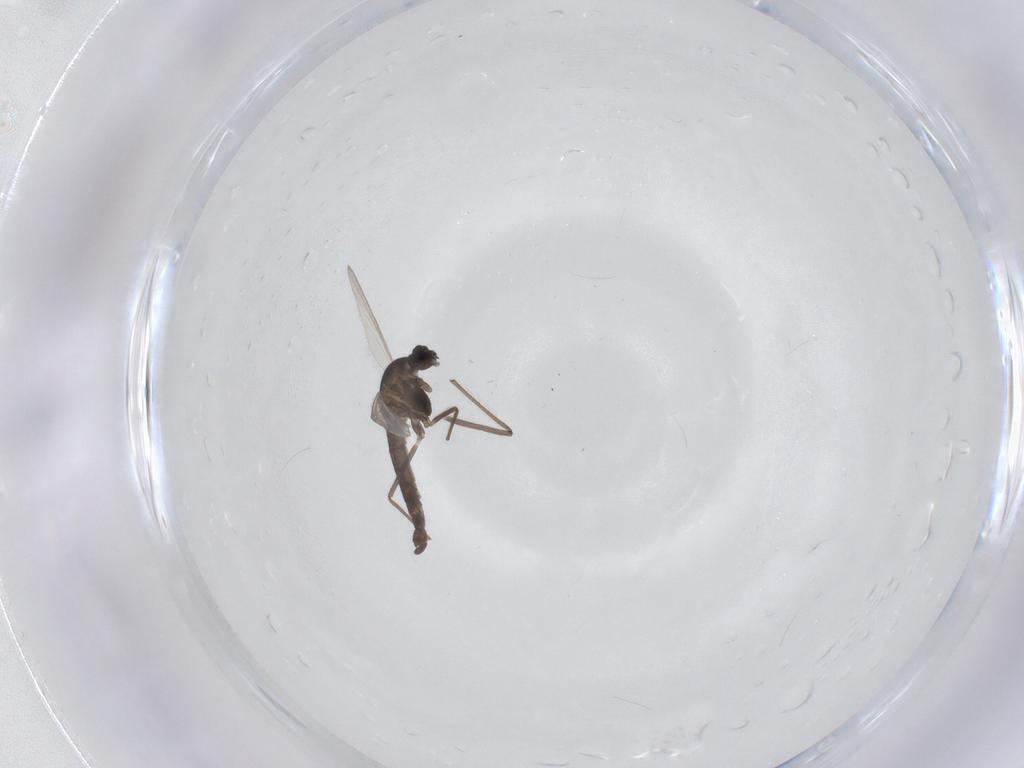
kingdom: Animalia
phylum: Arthropoda
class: Insecta
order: Diptera
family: Chironomidae
